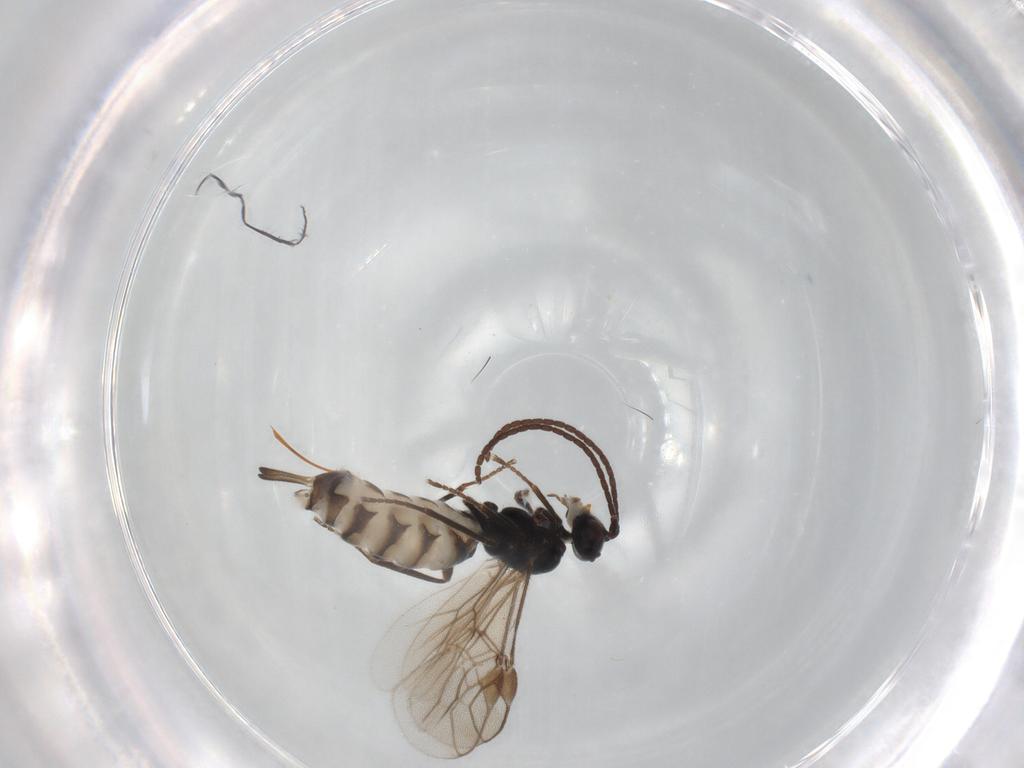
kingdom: Animalia
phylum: Arthropoda
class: Insecta
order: Hymenoptera
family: Braconidae
